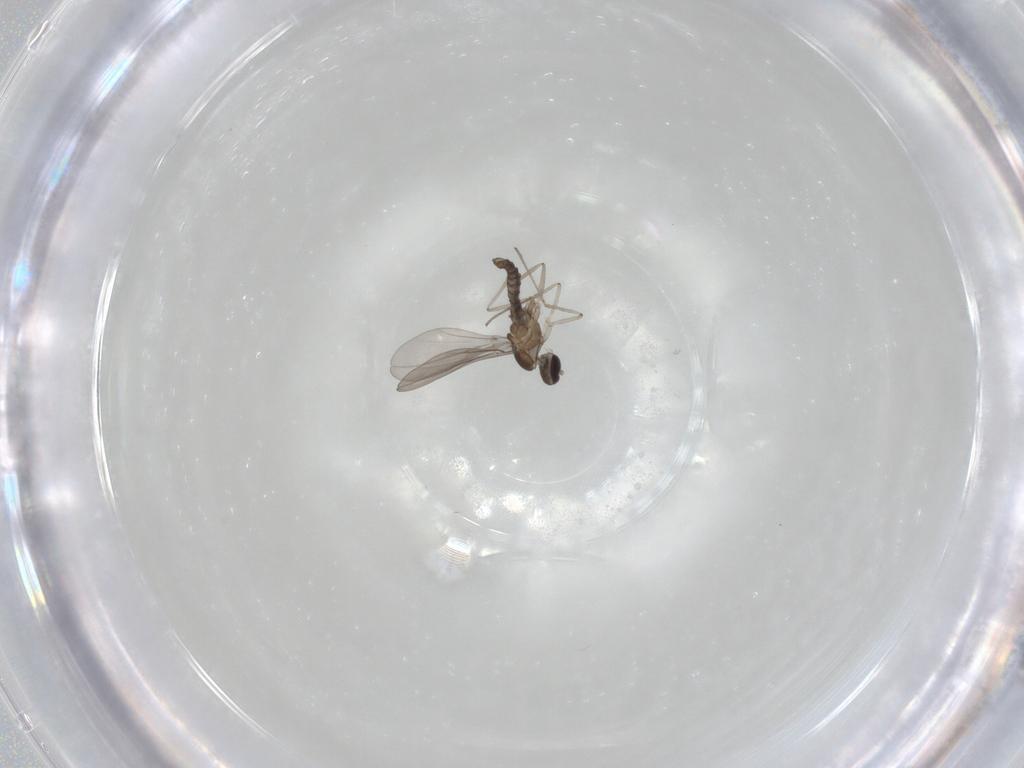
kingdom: Animalia
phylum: Arthropoda
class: Insecta
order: Diptera
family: Cecidomyiidae
